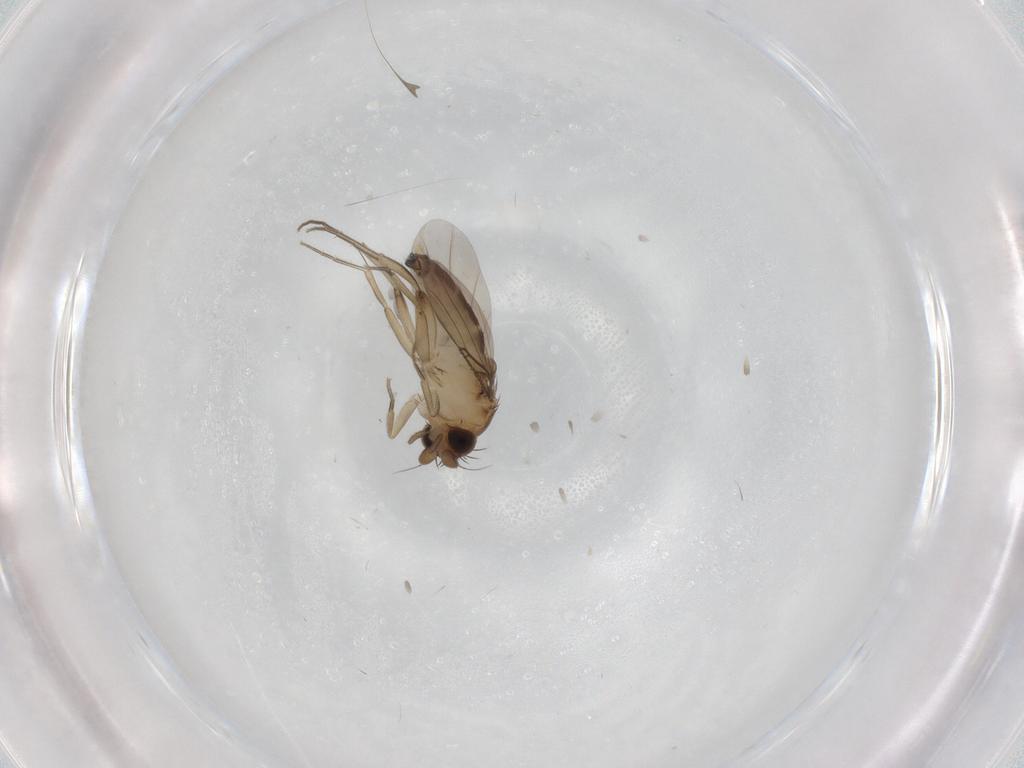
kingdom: Animalia
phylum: Arthropoda
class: Insecta
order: Diptera
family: Phoridae
